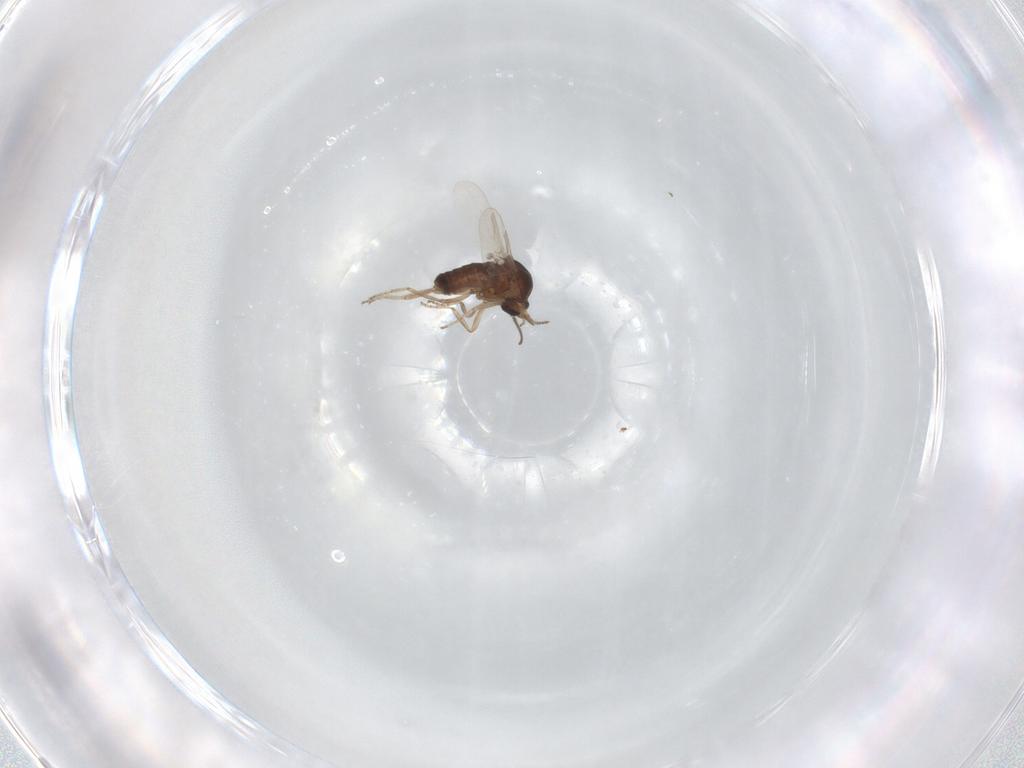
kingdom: Animalia
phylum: Arthropoda
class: Insecta
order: Diptera
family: Ceratopogonidae
